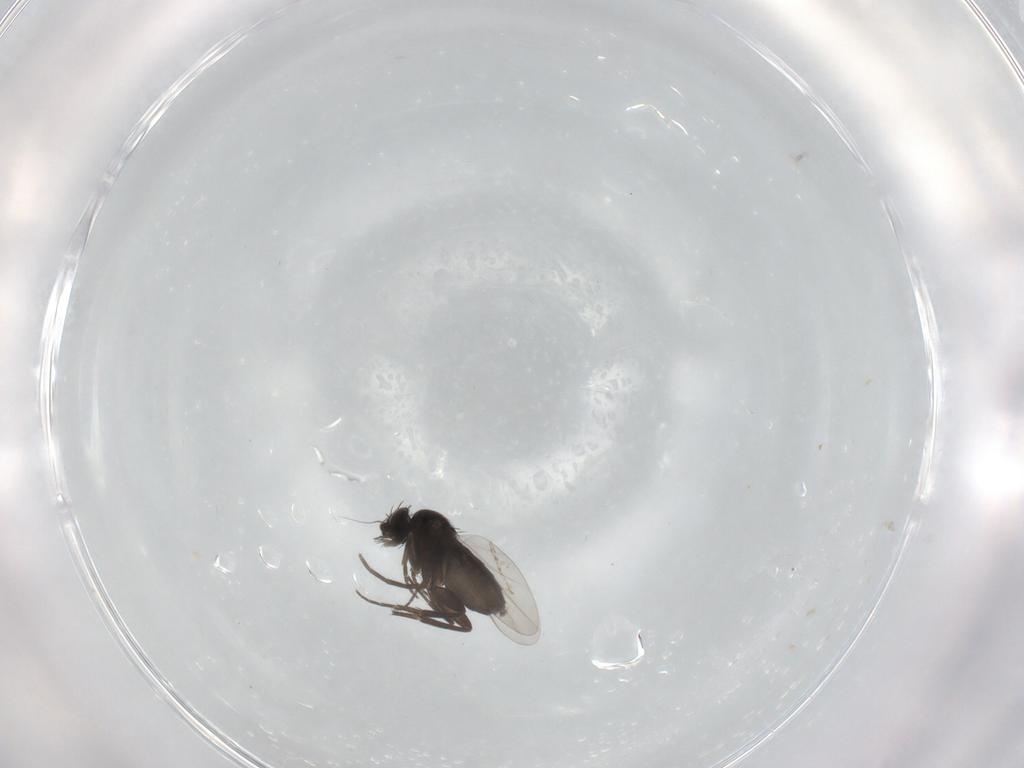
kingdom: Animalia
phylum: Arthropoda
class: Insecta
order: Diptera
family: Phoridae
